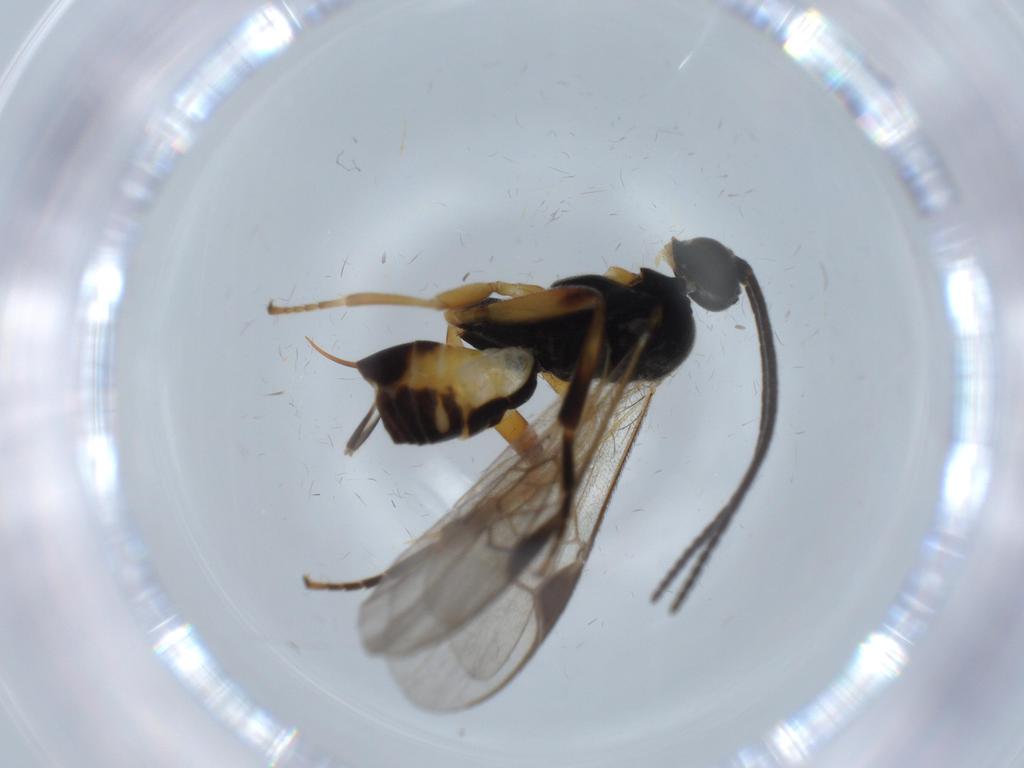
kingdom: Animalia
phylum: Arthropoda
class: Insecta
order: Hymenoptera
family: Braconidae
